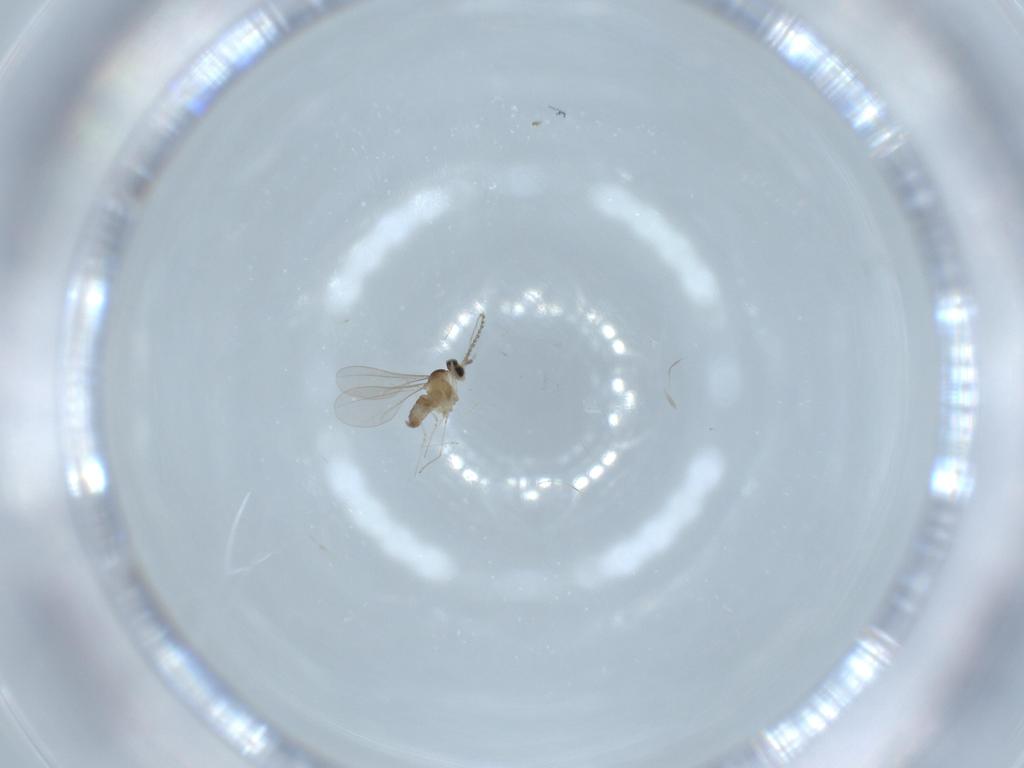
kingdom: Animalia
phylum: Arthropoda
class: Insecta
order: Diptera
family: Cecidomyiidae
